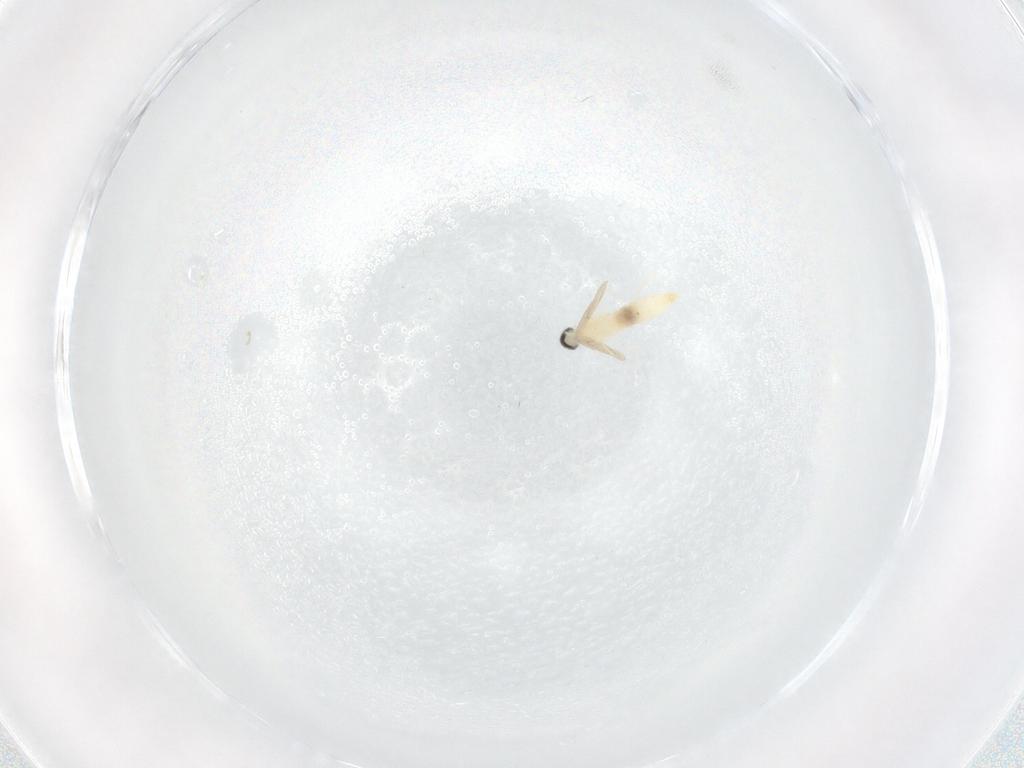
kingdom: Animalia
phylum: Arthropoda
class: Insecta
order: Diptera
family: Cecidomyiidae
